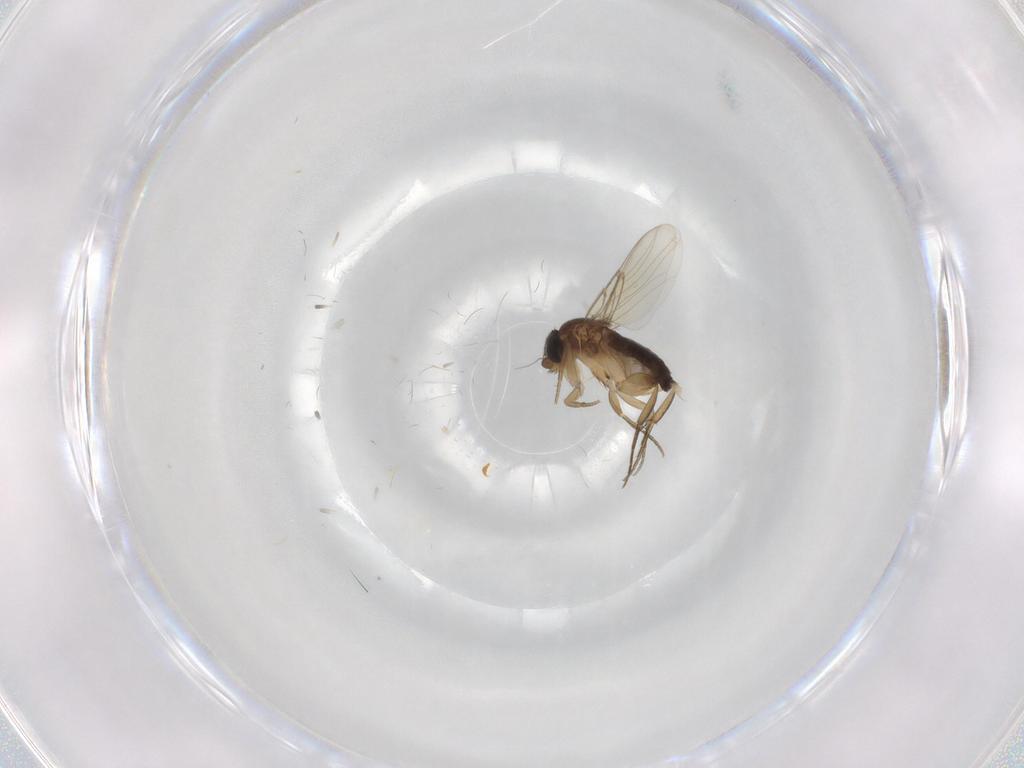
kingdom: Animalia
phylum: Arthropoda
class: Insecta
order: Diptera
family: Phoridae
